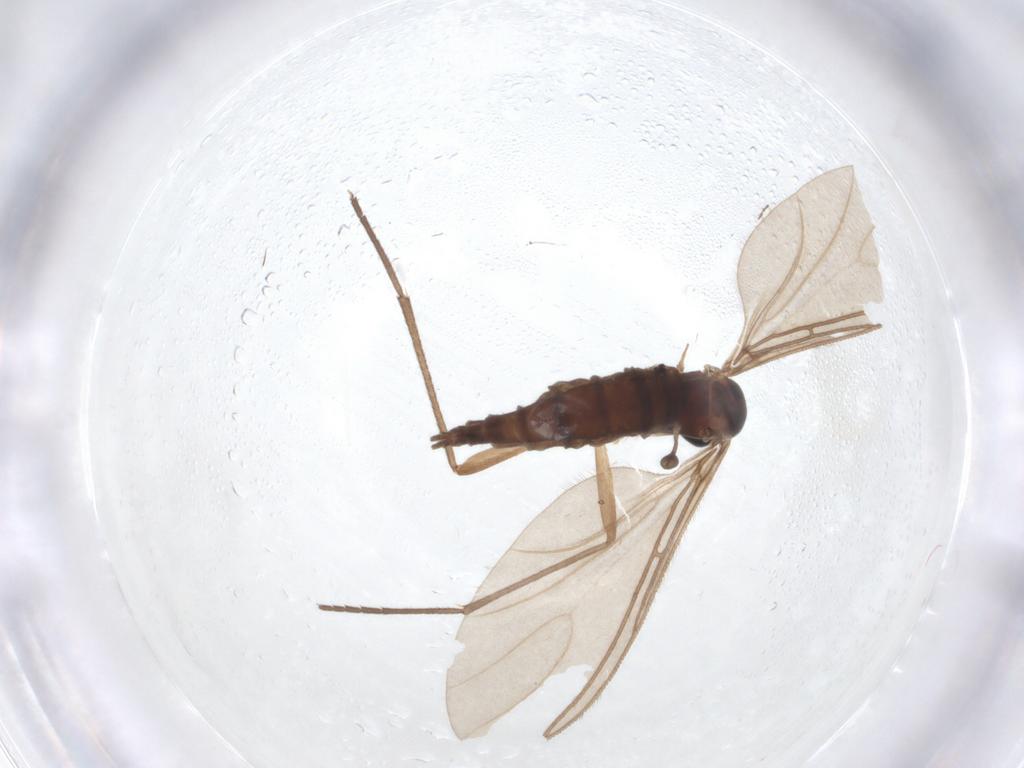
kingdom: Animalia
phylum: Arthropoda
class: Insecta
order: Diptera
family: Sciaridae
